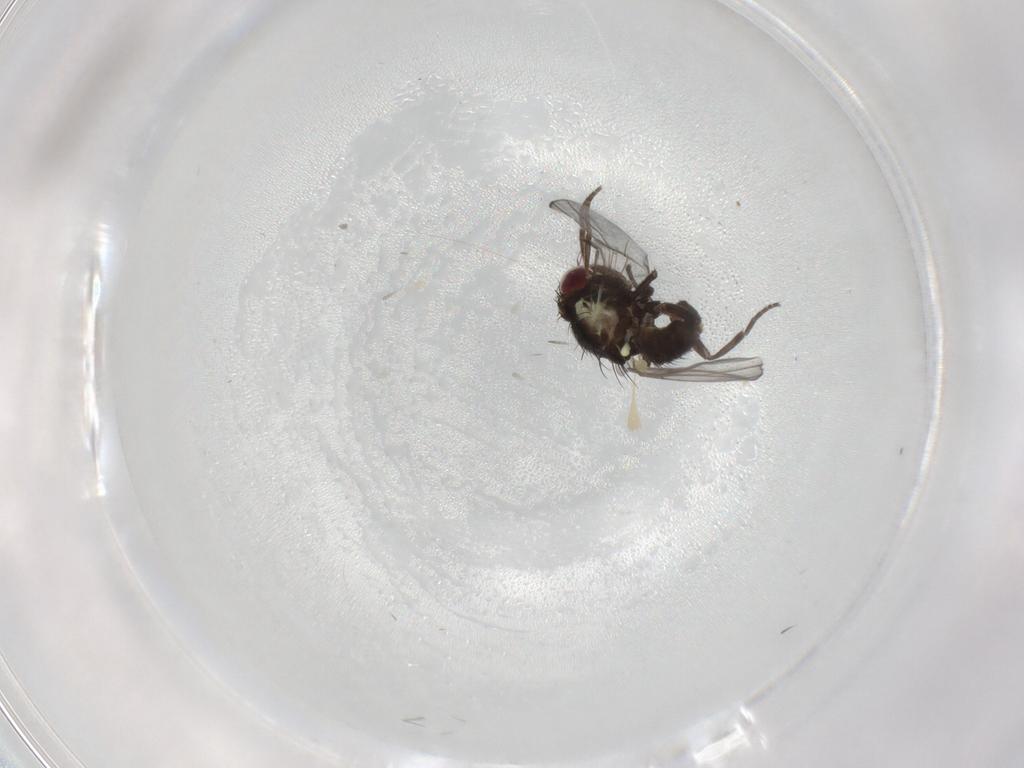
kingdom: Animalia
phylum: Arthropoda
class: Insecta
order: Diptera
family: Agromyzidae
